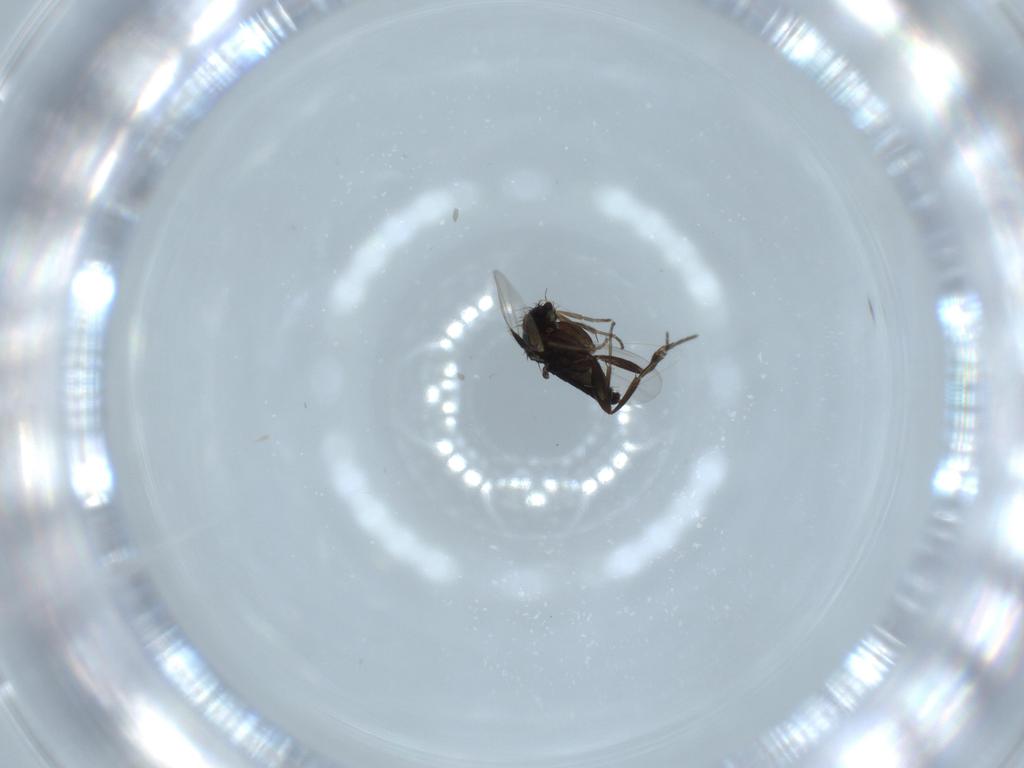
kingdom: Animalia
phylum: Arthropoda
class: Insecta
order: Diptera
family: Phoridae
